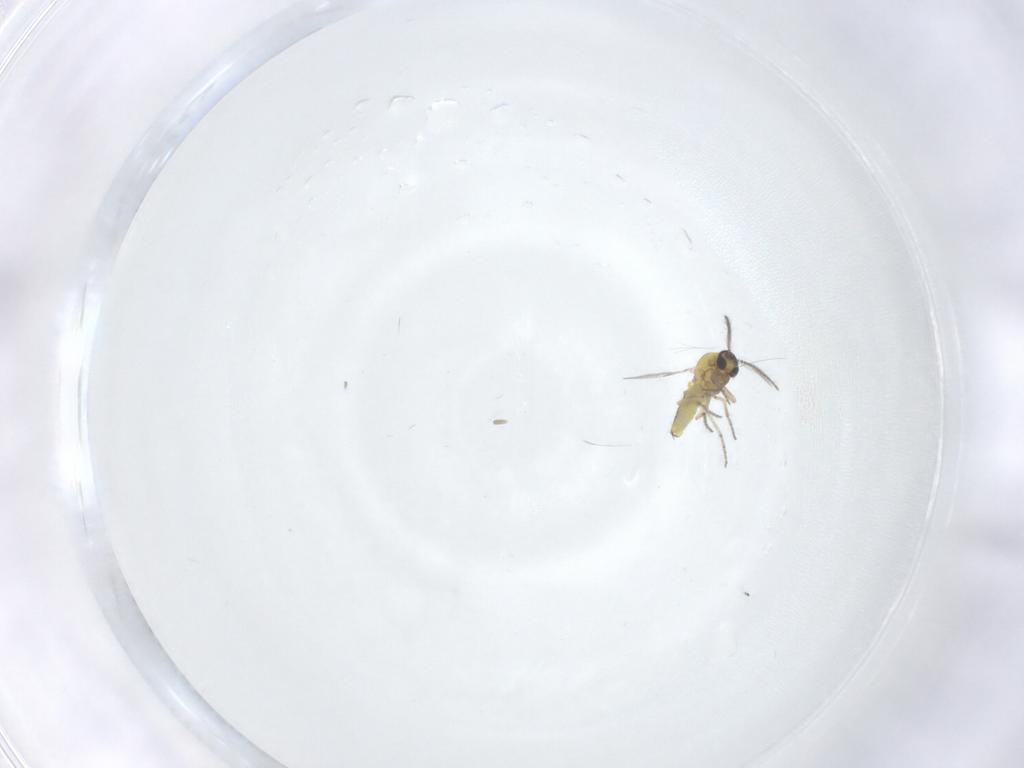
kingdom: Animalia
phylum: Arthropoda
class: Insecta
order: Diptera
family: Ceratopogonidae
